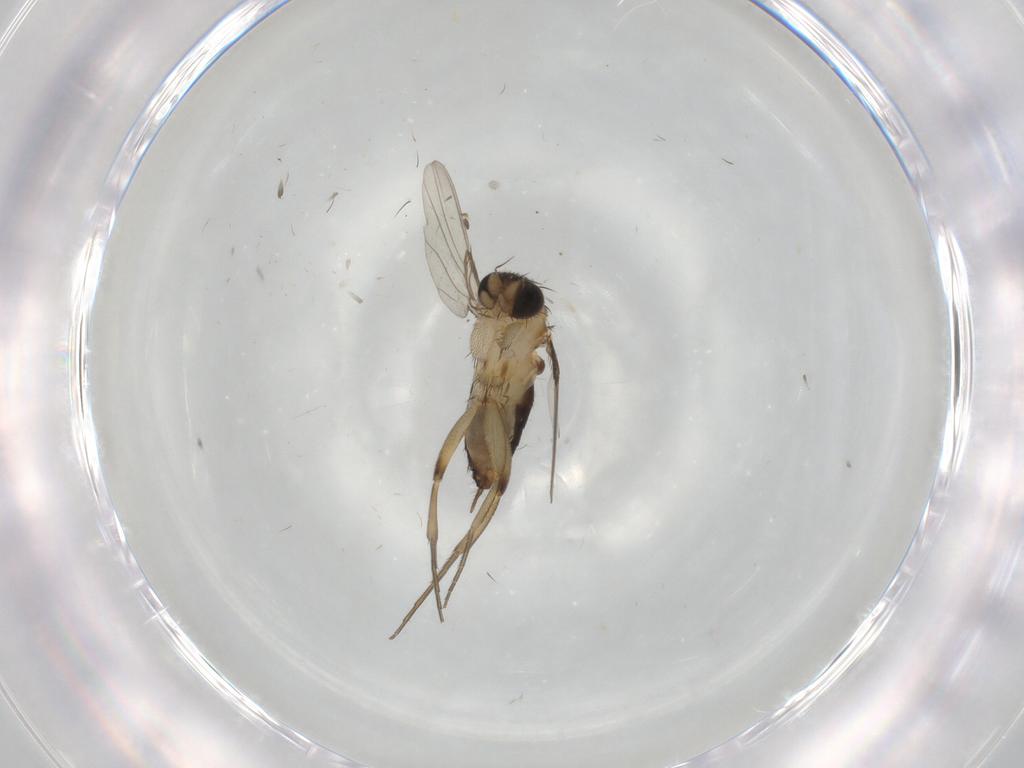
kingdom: Animalia
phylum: Arthropoda
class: Insecta
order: Diptera
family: Phoridae
